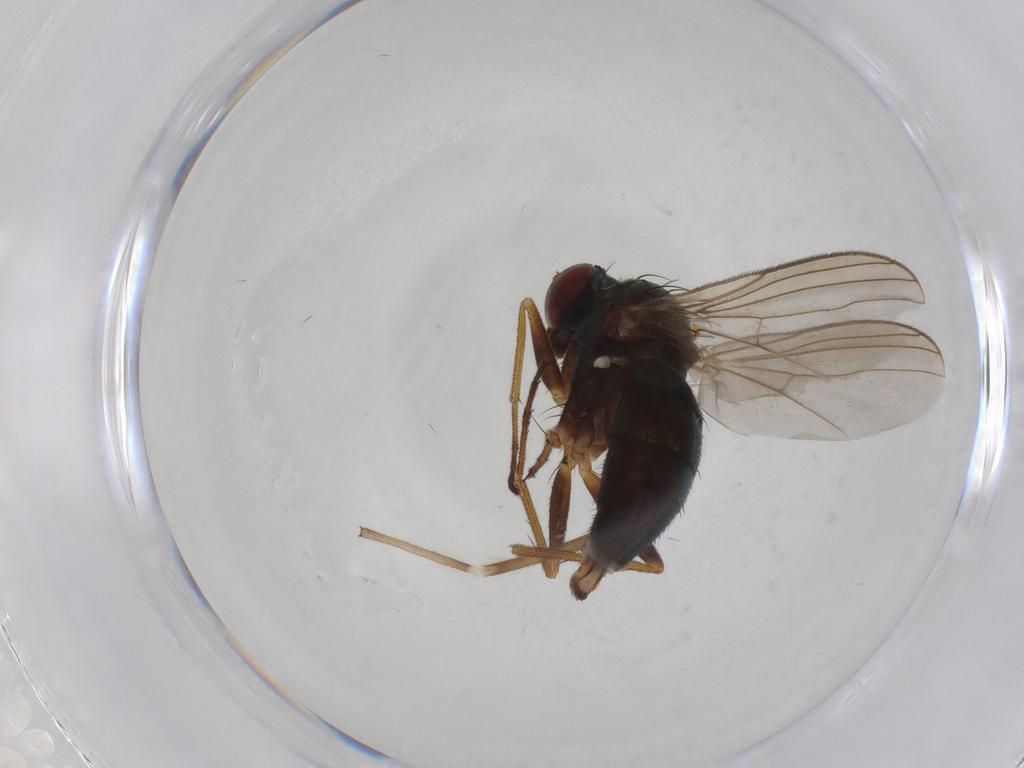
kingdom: Animalia
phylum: Arthropoda
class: Insecta
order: Diptera
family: Dolichopodidae
